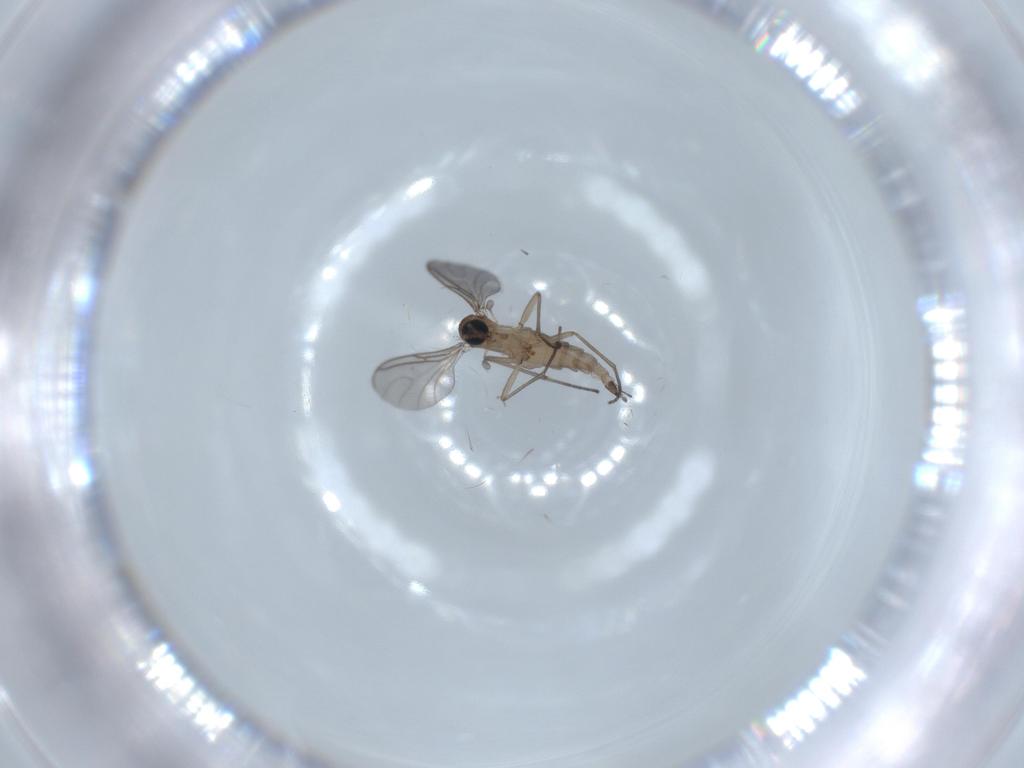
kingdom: Animalia
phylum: Arthropoda
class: Insecta
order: Diptera
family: Sciaridae
